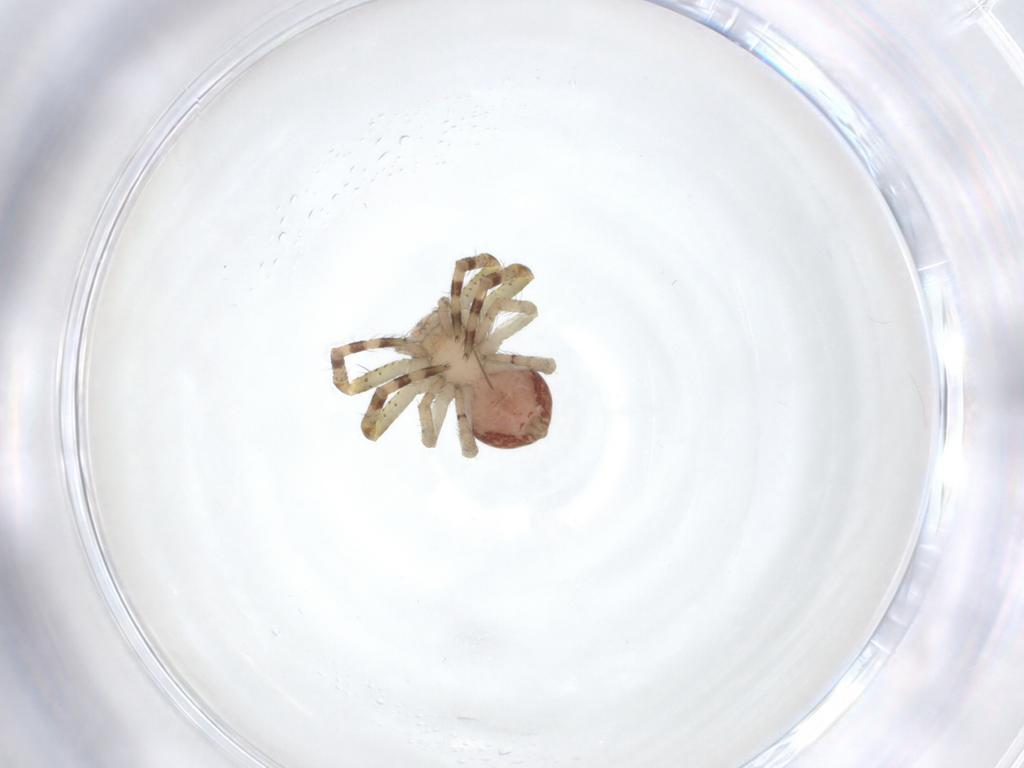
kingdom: Animalia
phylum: Arthropoda
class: Arachnida
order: Araneae
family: Thomisidae
